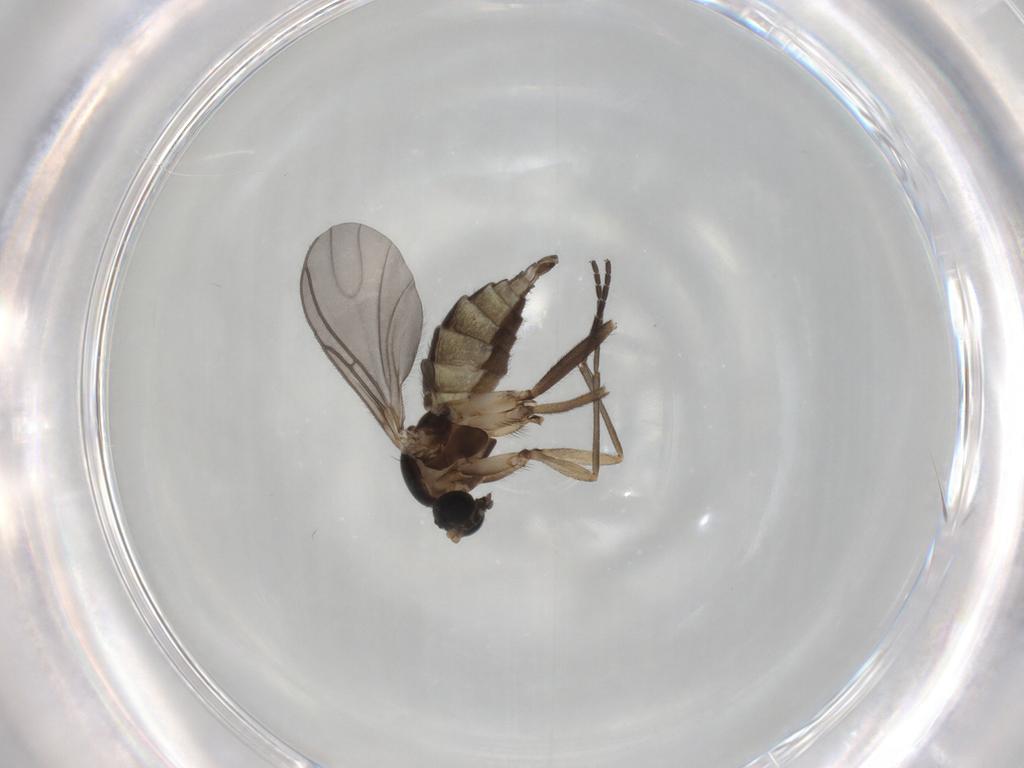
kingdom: Animalia
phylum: Arthropoda
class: Insecta
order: Diptera
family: Sciaridae
